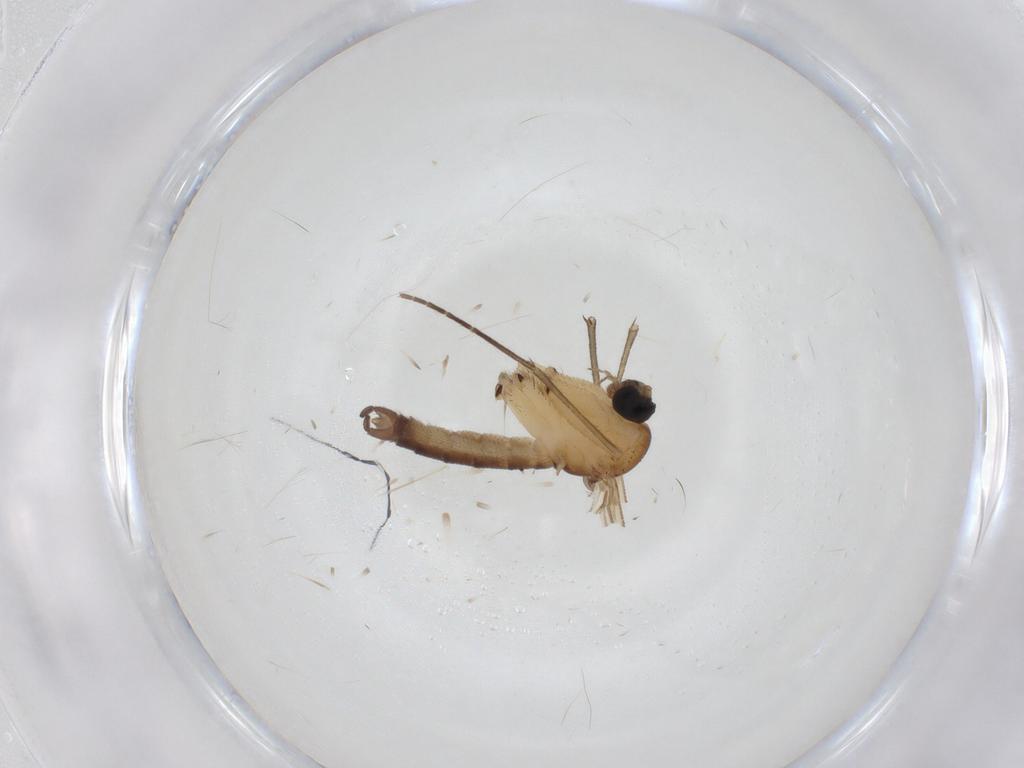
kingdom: Animalia
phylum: Arthropoda
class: Insecta
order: Diptera
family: Sciaridae
